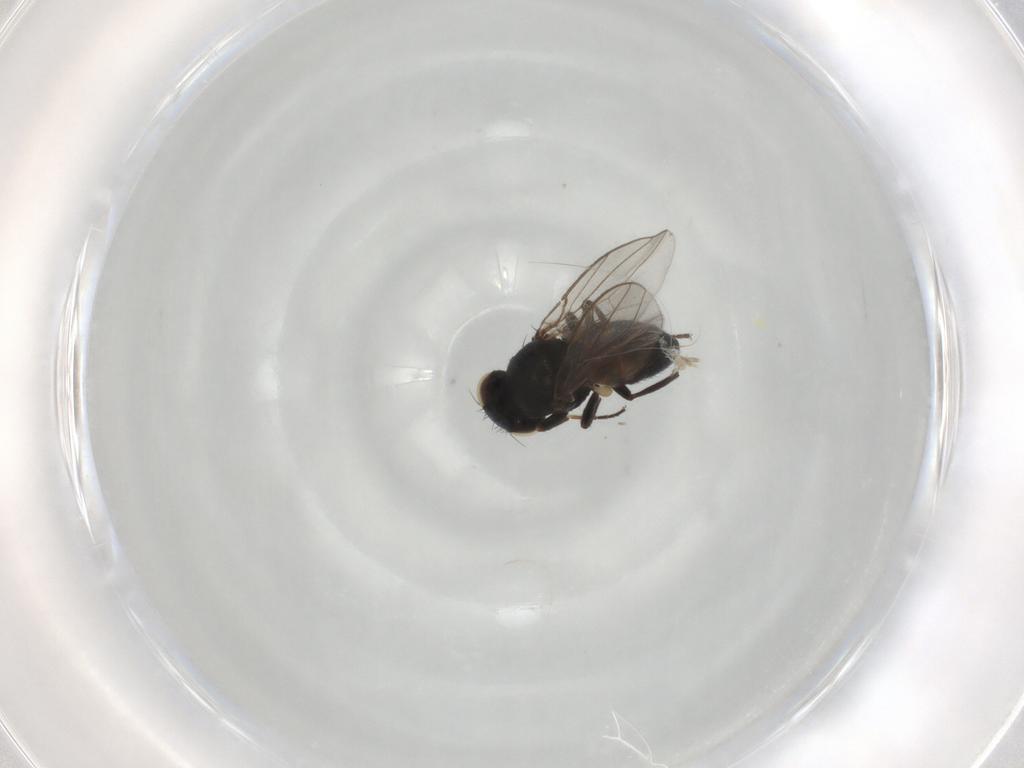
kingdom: Animalia
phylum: Arthropoda
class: Insecta
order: Diptera
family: Chloropidae
